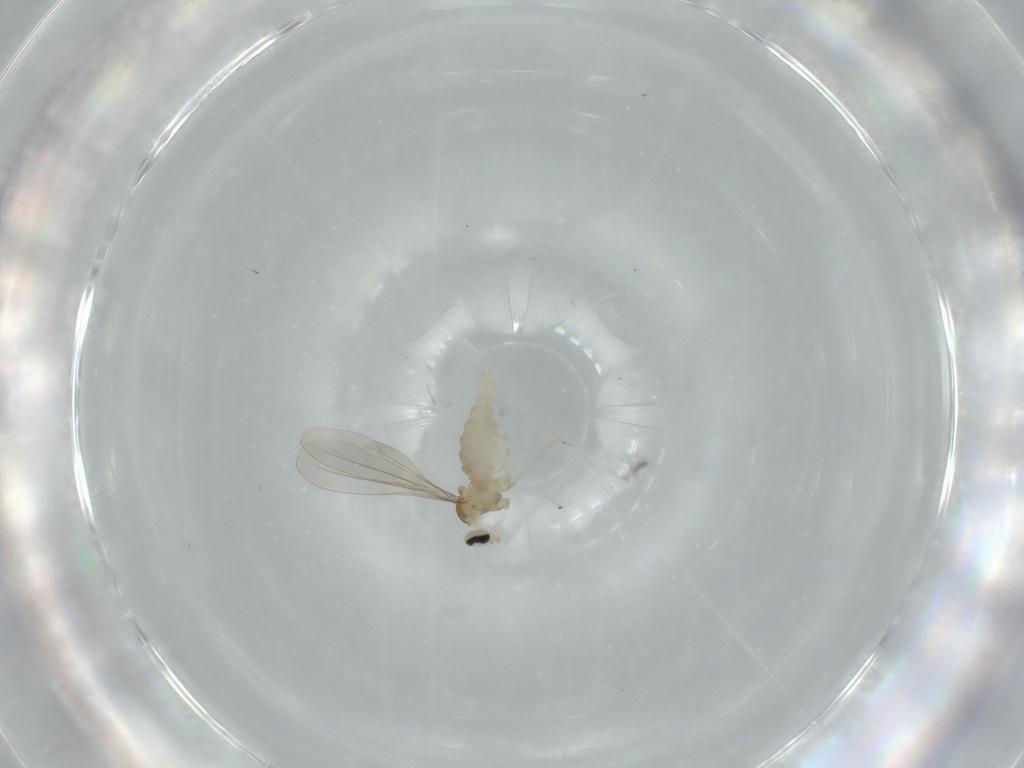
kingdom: Animalia
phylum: Arthropoda
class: Insecta
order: Diptera
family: Cecidomyiidae
